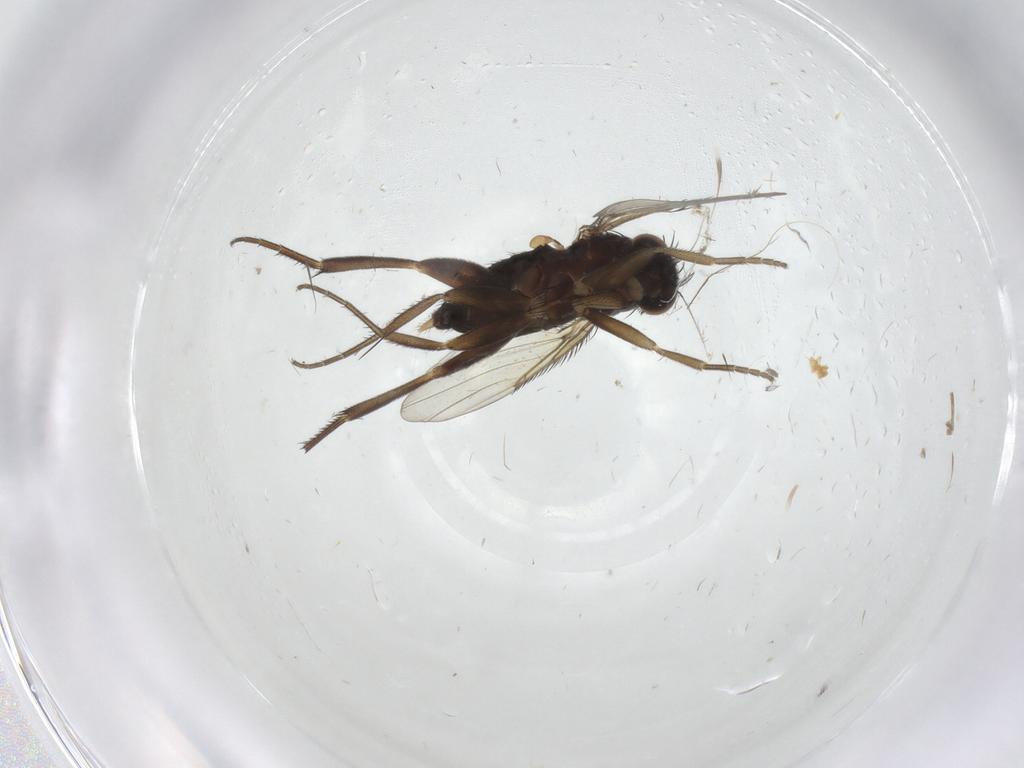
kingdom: Animalia
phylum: Arthropoda
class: Insecta
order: Diptera
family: Phoridae
